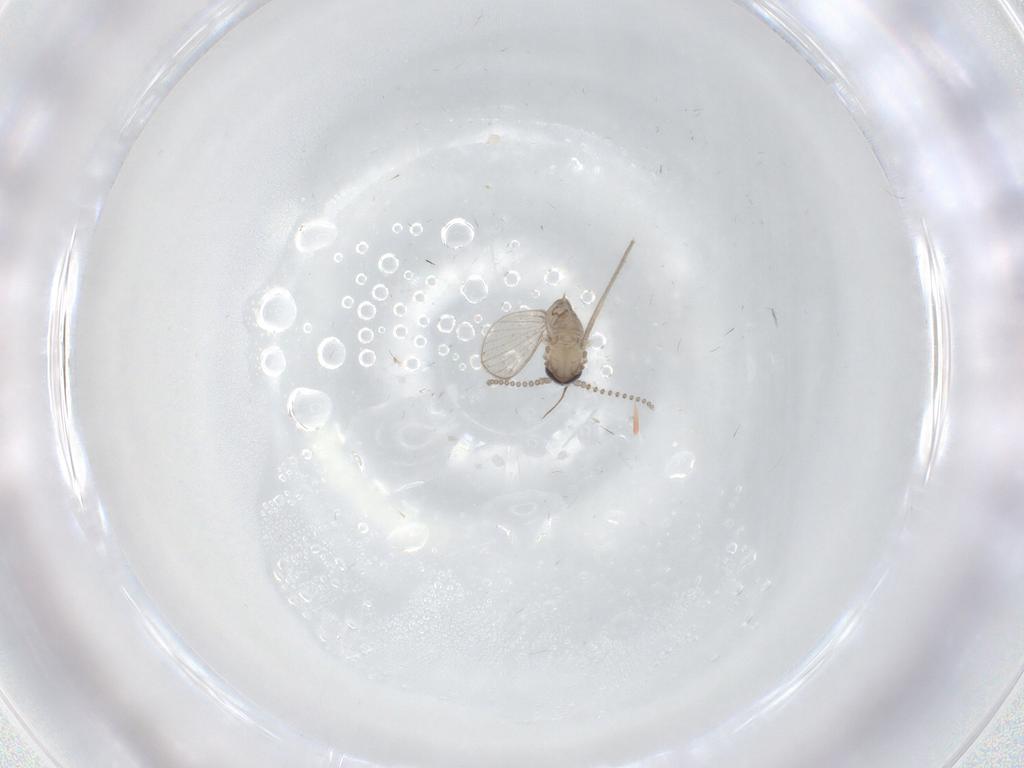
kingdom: Animalia
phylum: Arthropoda
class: Insecta
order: Diptera
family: Psychodidae
